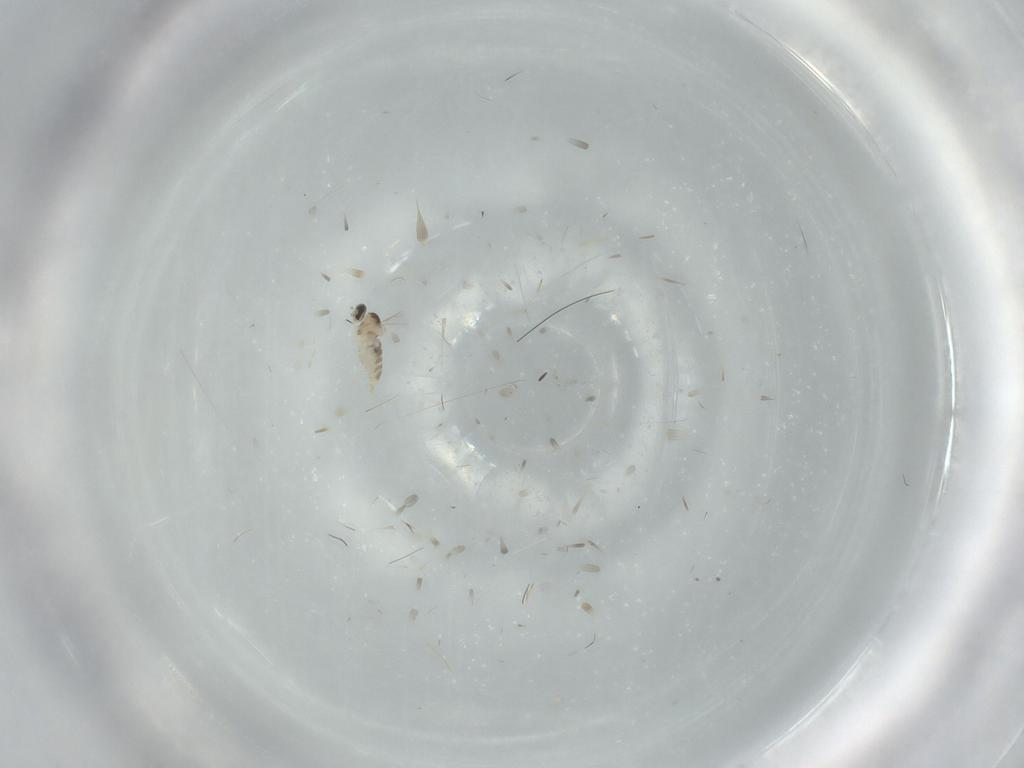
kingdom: Animalia
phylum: Arthropoda
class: Insecta
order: Diptera
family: Cecidomyiidae
